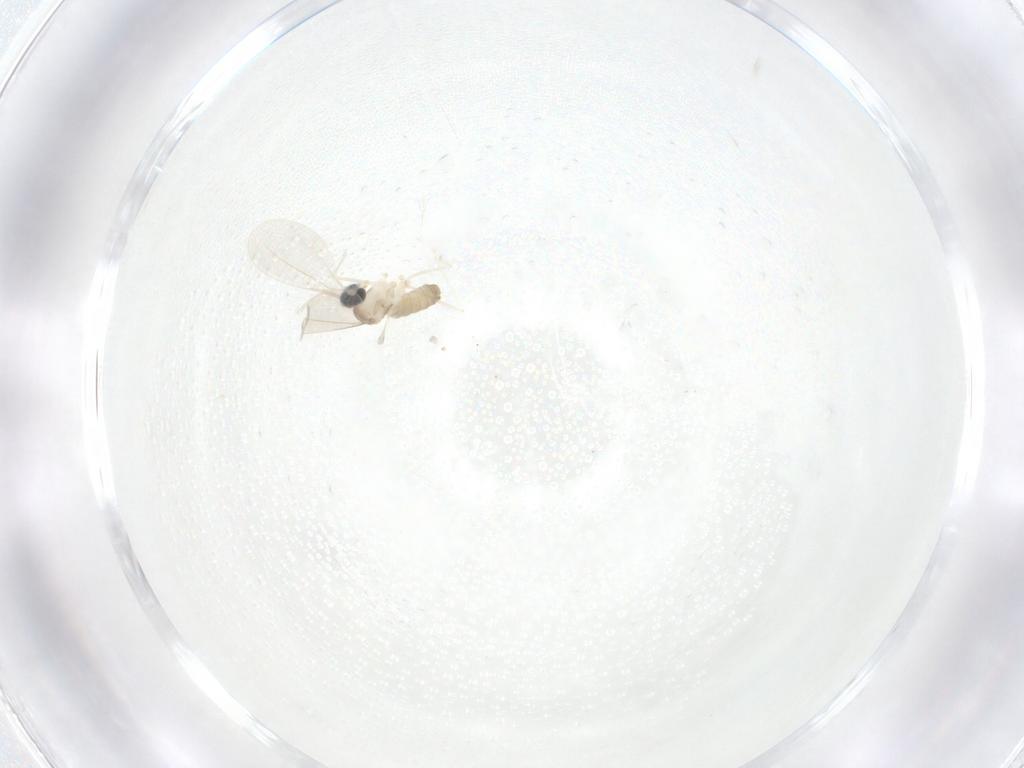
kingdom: Animalia
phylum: Arthropoda
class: Insecta
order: Diptera
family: Cecidomyiidae
